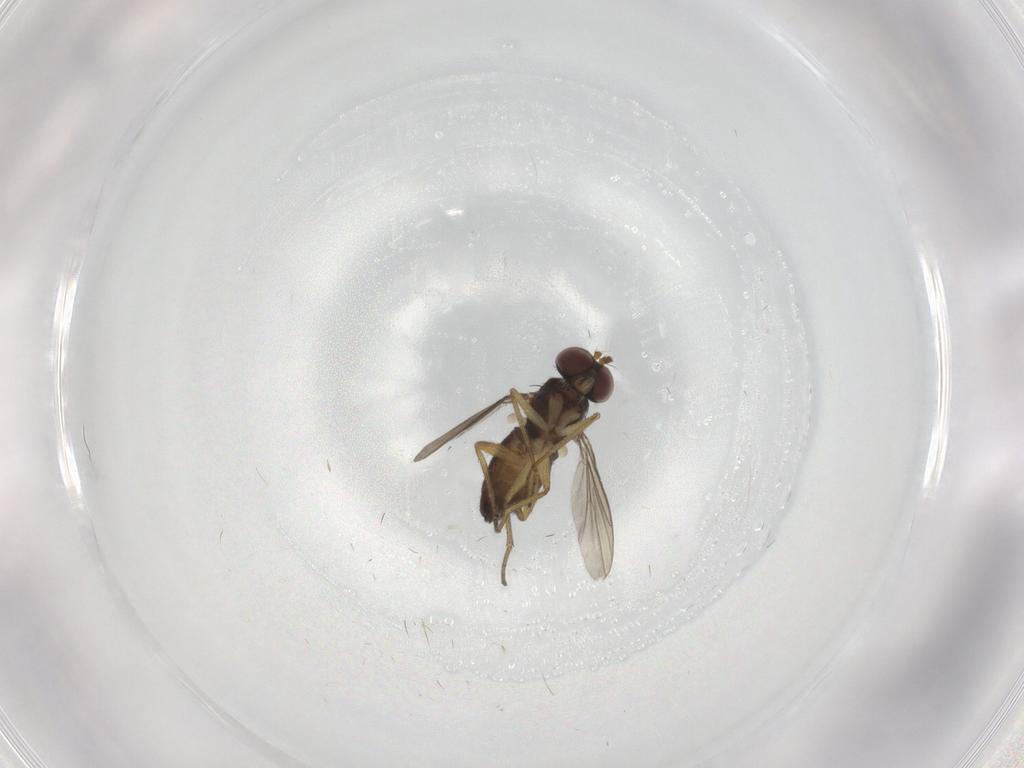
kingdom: Animalia
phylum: Arthropoda
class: Insecta
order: Diptera
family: Dolichopodidae
